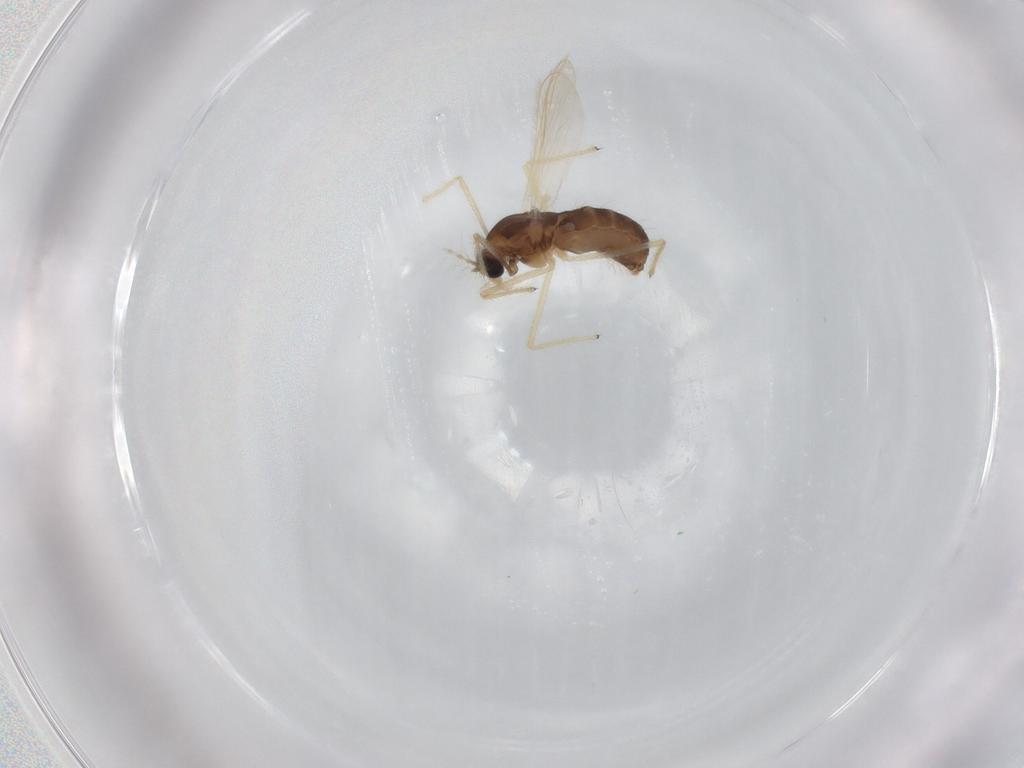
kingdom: Animalia
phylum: Arthropoda
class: Insecta
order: Diptera
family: Chironomidae
